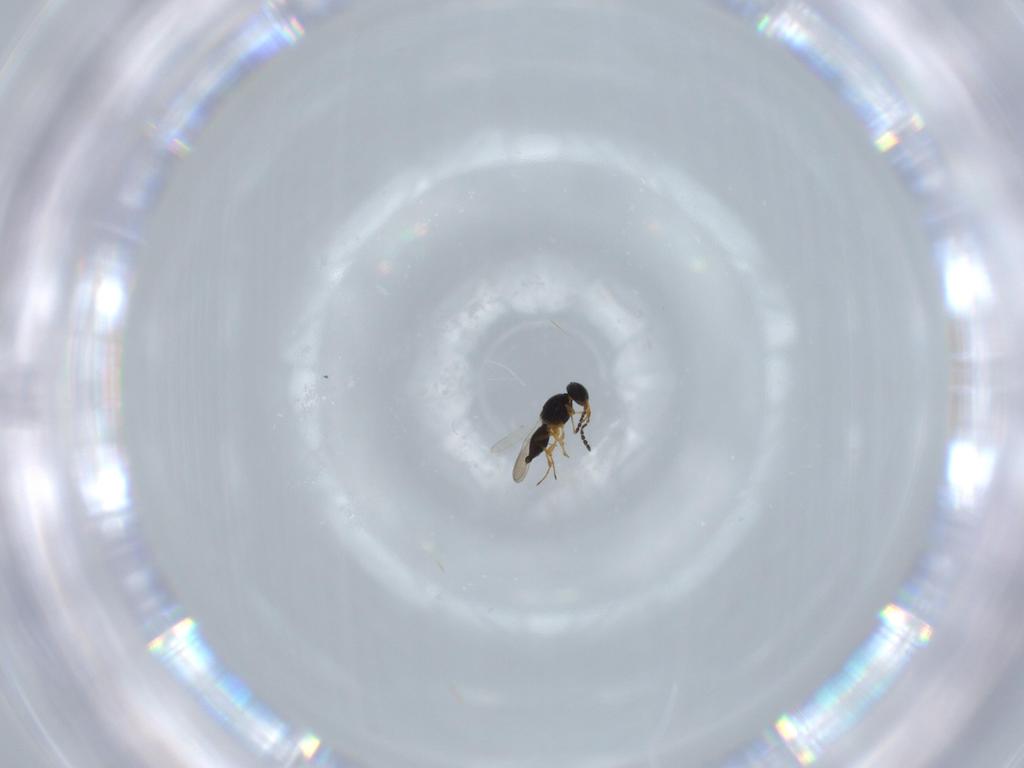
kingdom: Animalia
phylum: Arthropoda
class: Insecta
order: Hymenoptera
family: Platygastridae
